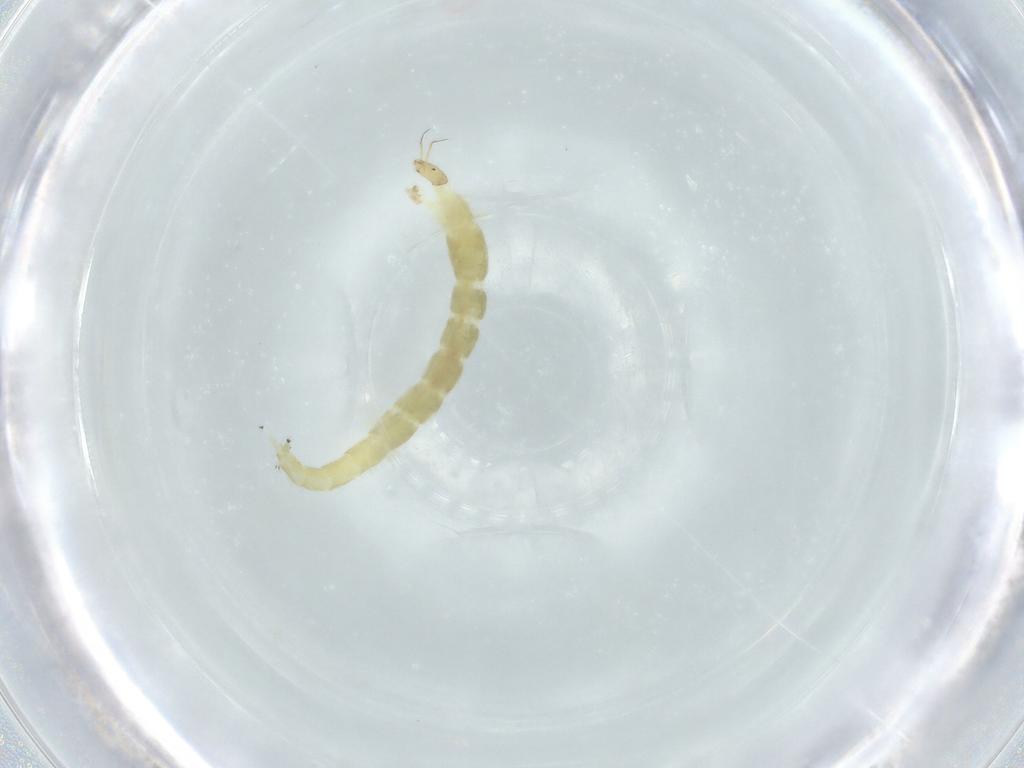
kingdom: Animalia
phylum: Arthropoda
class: Insecta
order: Diptera
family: Chironomidae
